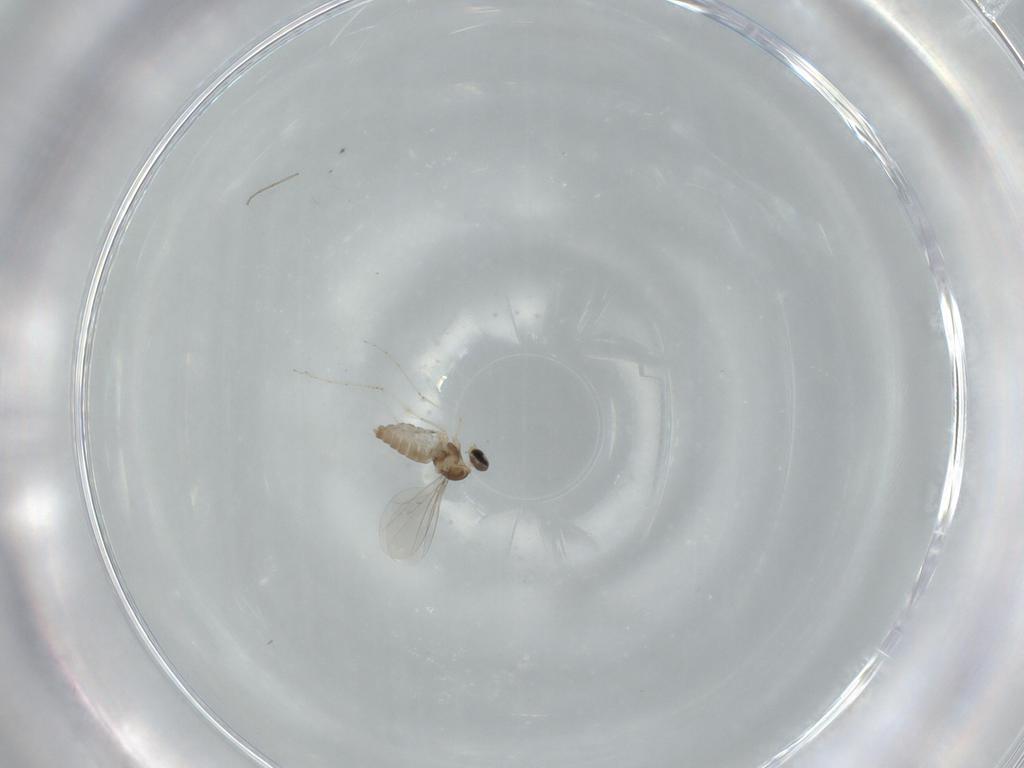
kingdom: Animalia
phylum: Arthropoda
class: Insecta
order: Diptera
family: Cecidomyiidae
